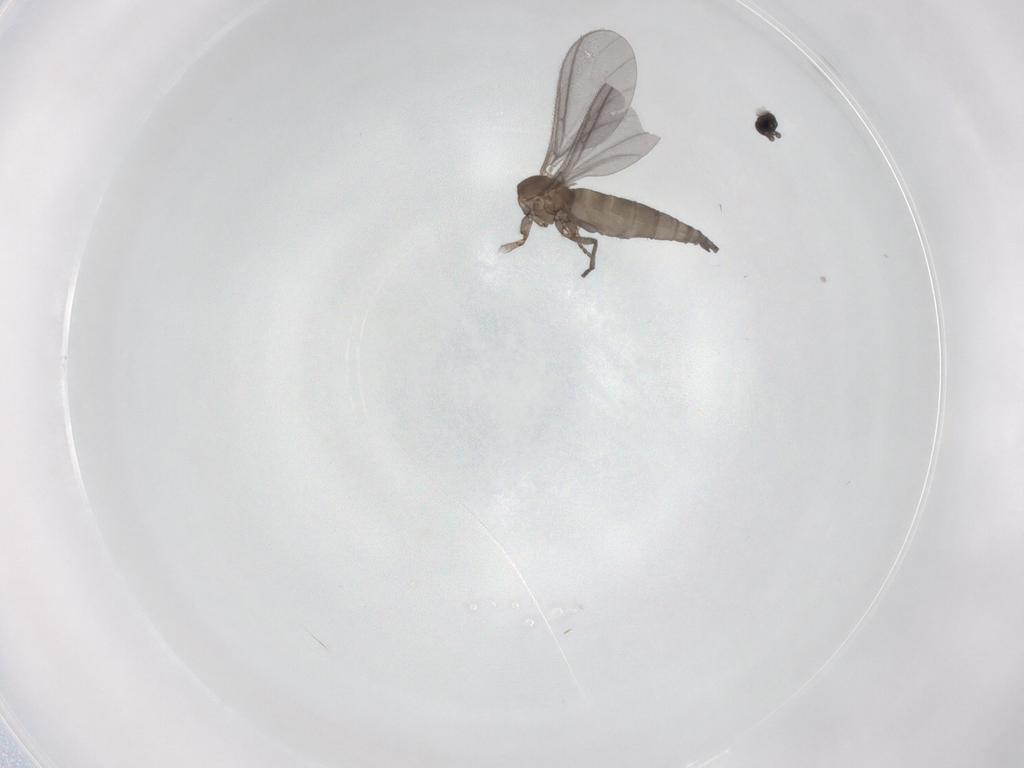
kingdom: Animalia
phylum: Arthropoda
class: Insecta
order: Diptera
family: Sciaridae
